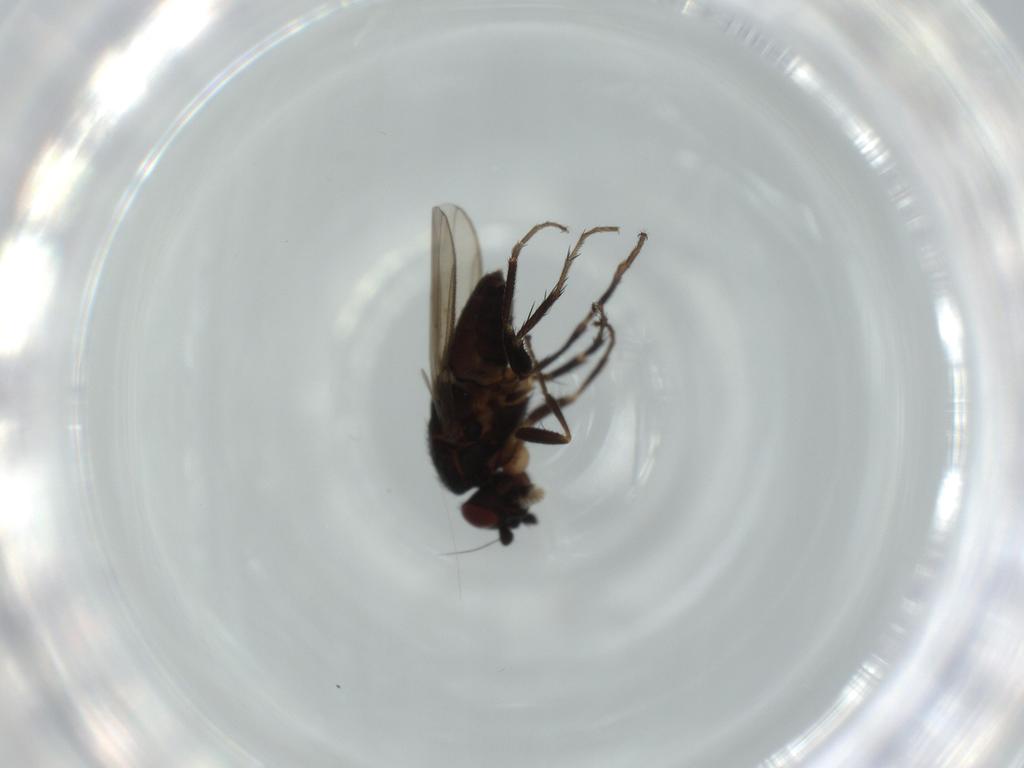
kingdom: Animalia
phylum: Arthropoda
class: Insecta
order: Diptera
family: Sphaeroceridae
